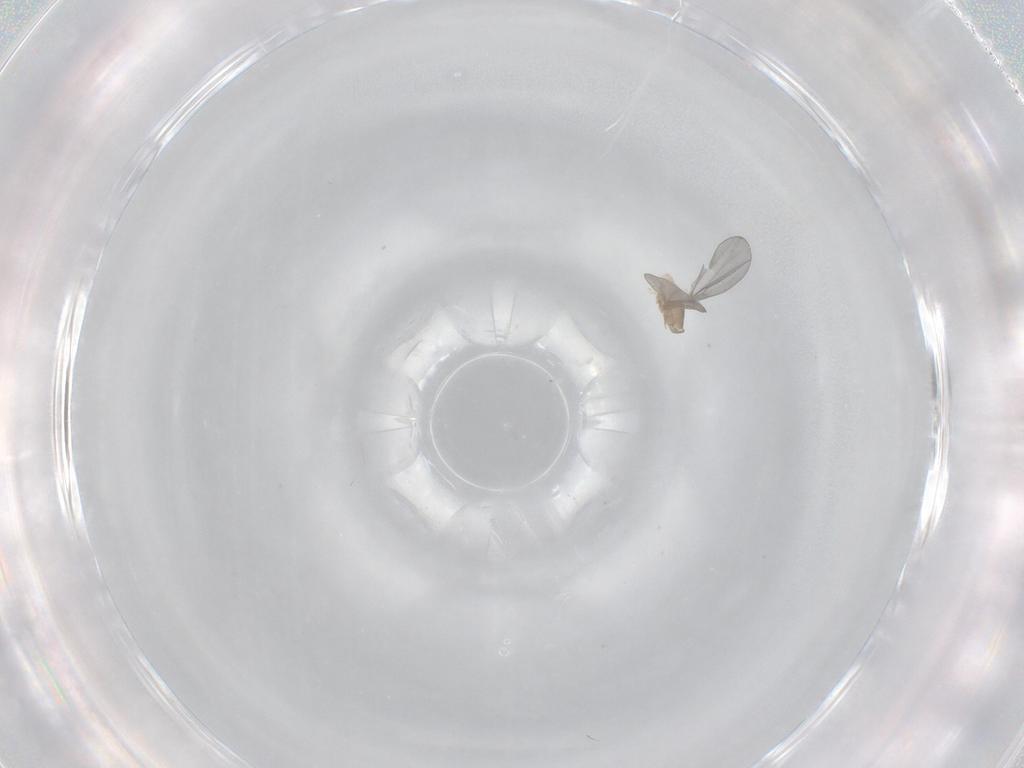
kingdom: Animalia
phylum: Arthropoda
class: Insecta
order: Diptera
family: Cecidomyiidae
